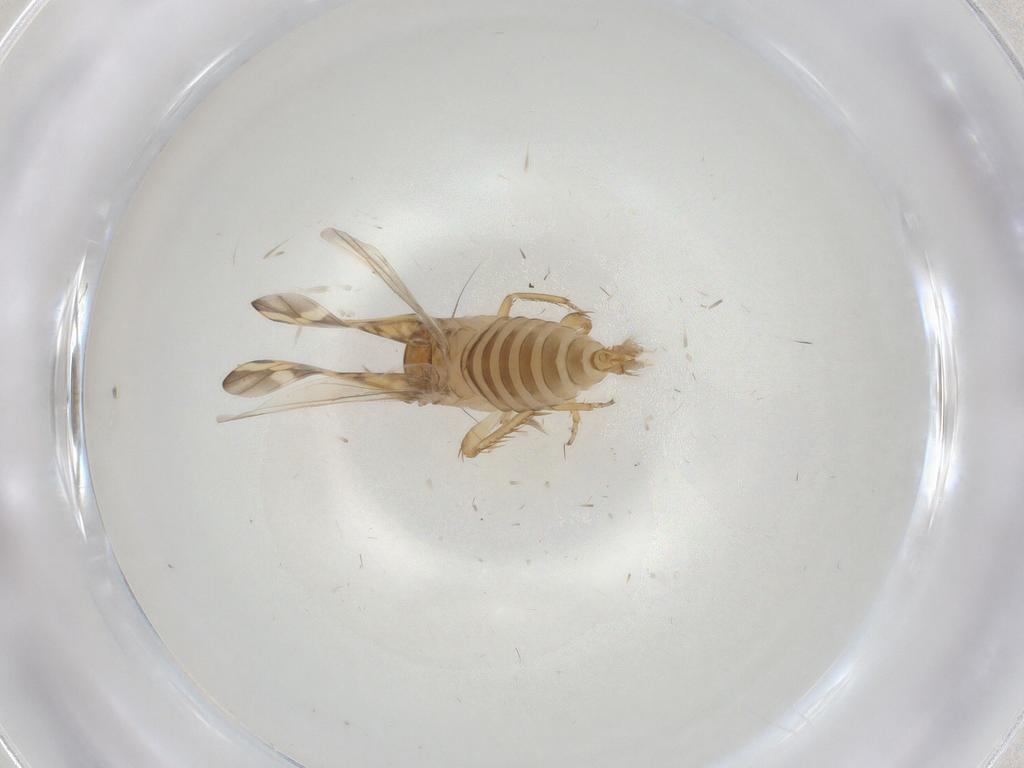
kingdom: Animalia
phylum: Arthropoda
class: Insecta
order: Hemiptera
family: Cicadellidae
